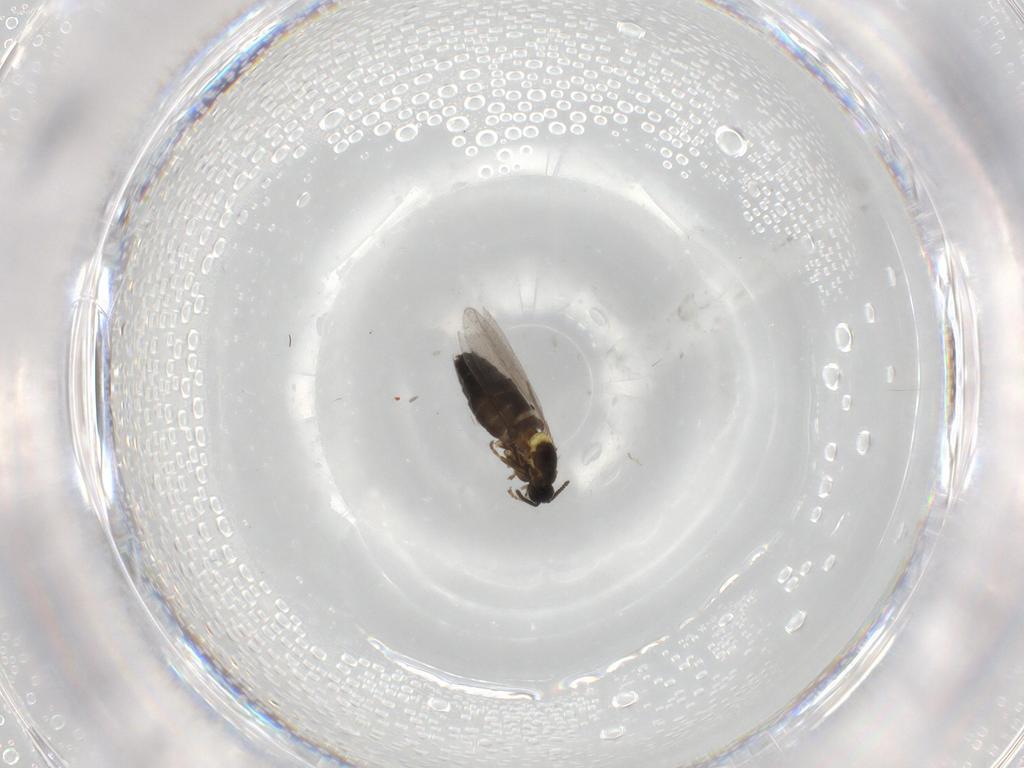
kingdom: Animalia
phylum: Arthropoda
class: Insecta
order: Diptera
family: Scatopsidae
